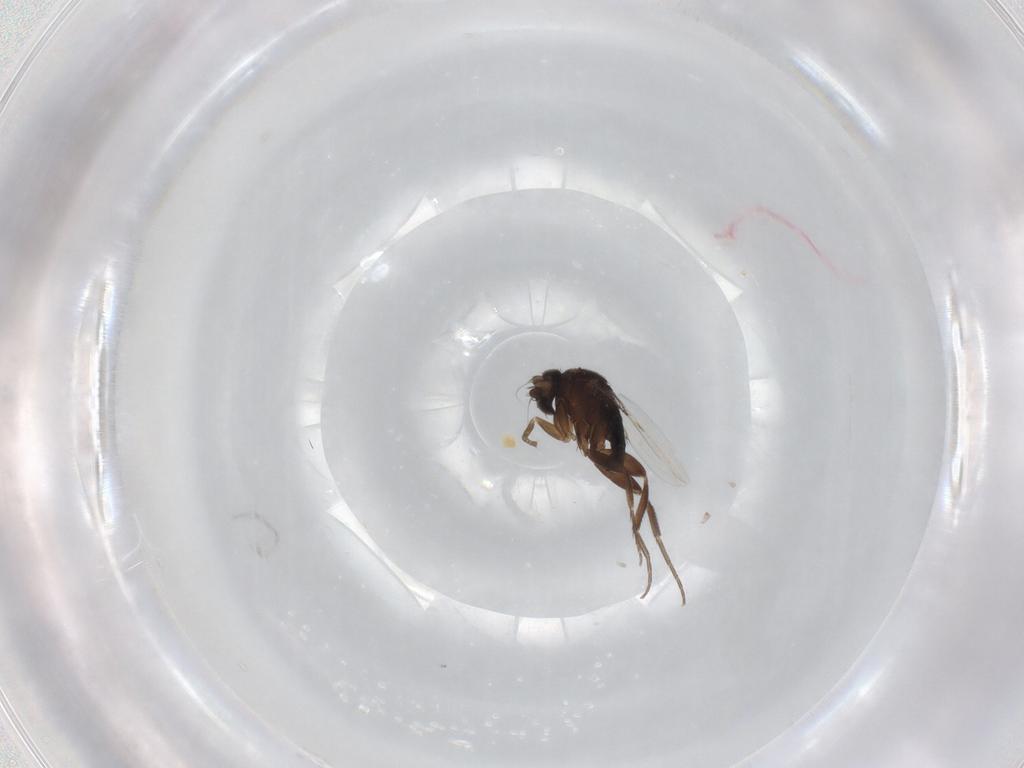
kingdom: Animalia
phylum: Arthropoda
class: Insecta
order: Diptera
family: Phoridae
